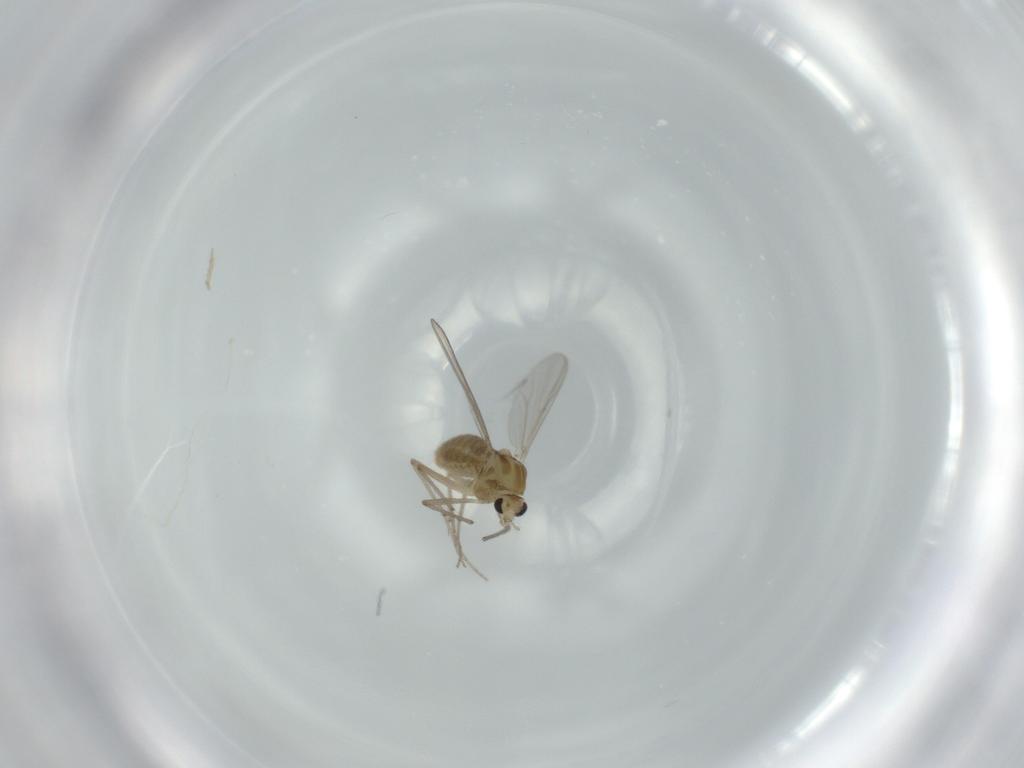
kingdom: Animalia
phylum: Arthropoda
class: Insecta
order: Diptera
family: Chironomidae
